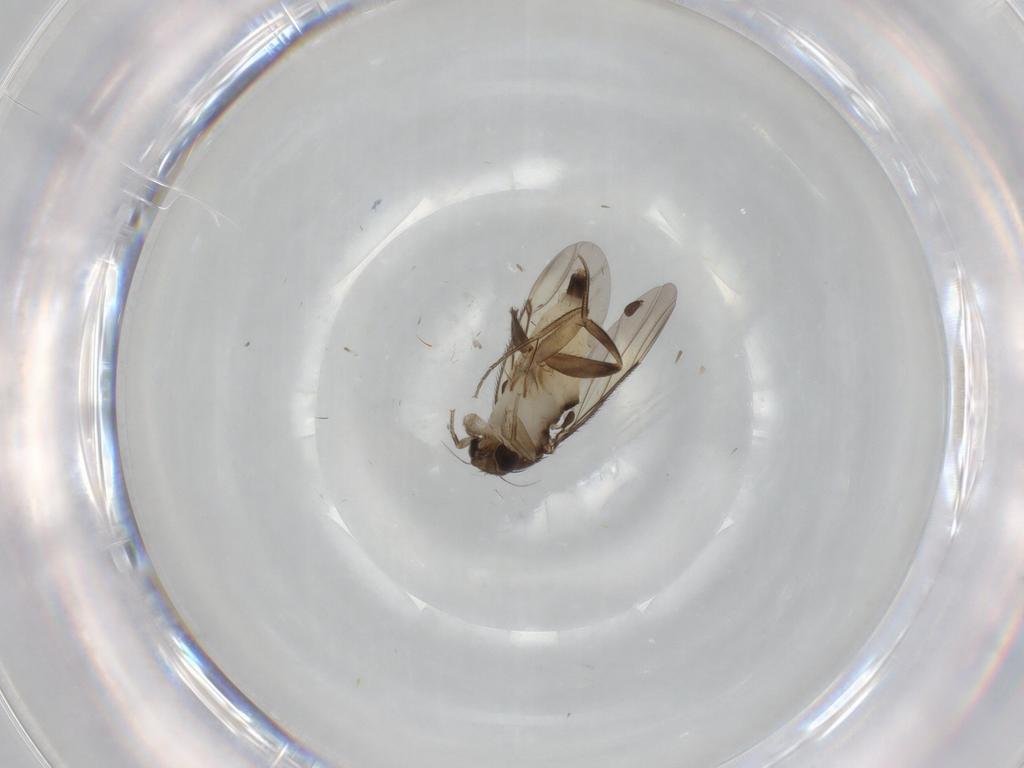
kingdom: Animalia
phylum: Arthropoda
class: Insecta
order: Diptera
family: Phoridae
